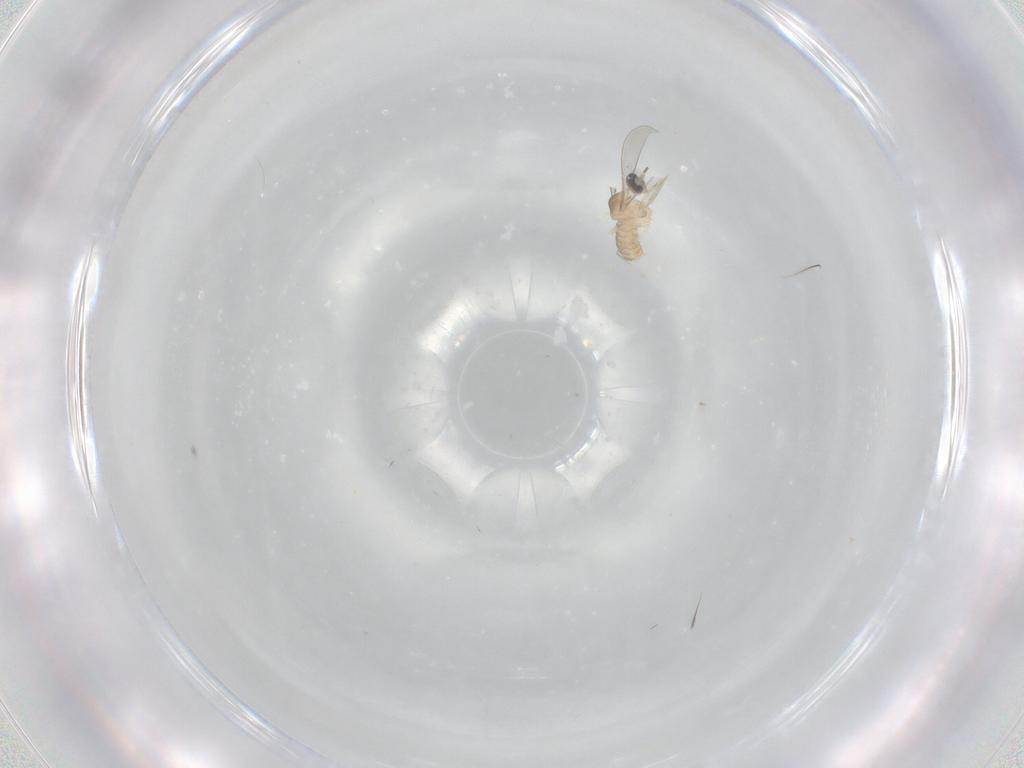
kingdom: Animalia
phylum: Arthropoda
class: Insecta
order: Diptera
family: Cecidomyiidae
